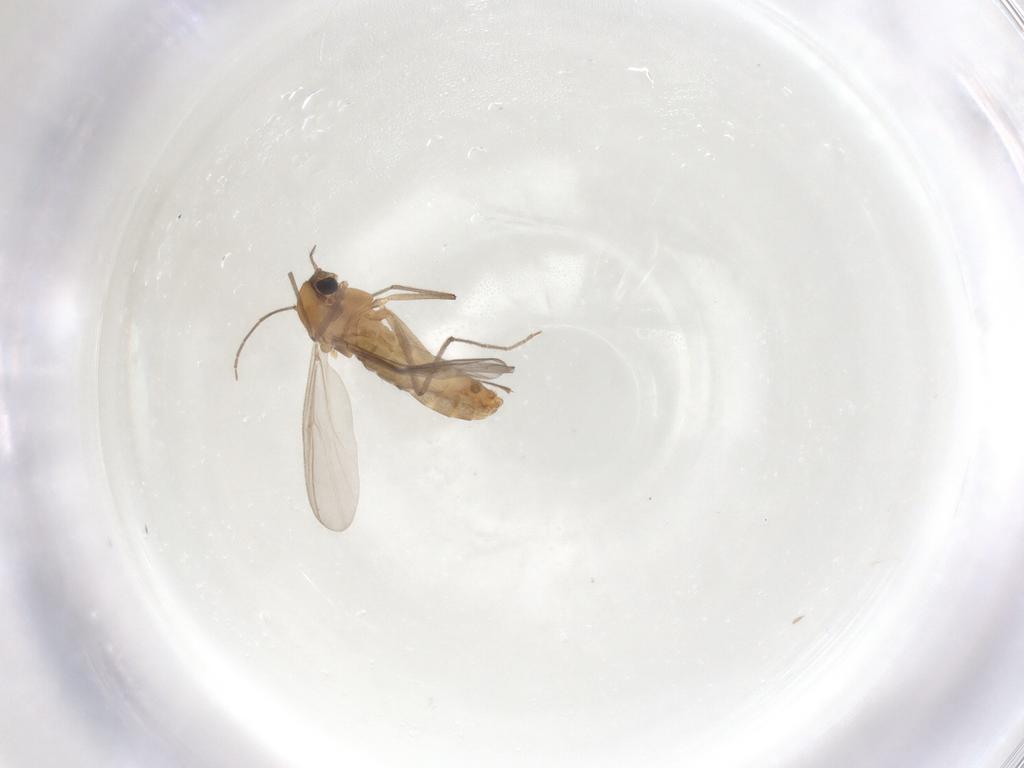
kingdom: Animalia
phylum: Arthropoda
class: Insecta
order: Diptera
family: Chironomidae
